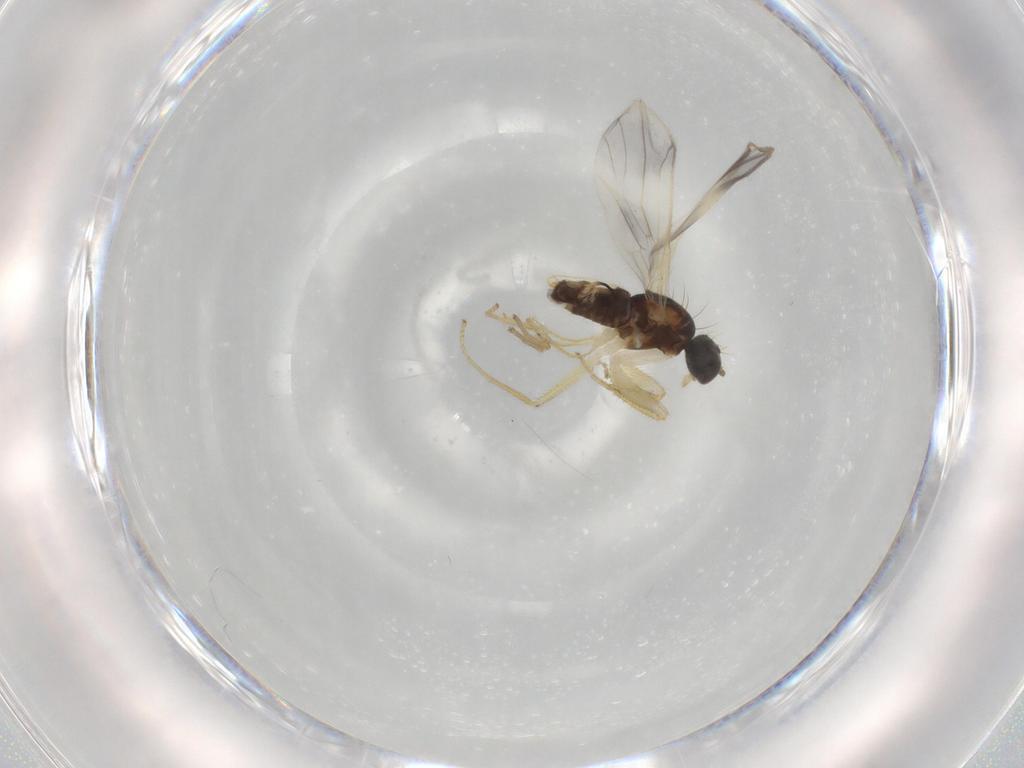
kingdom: Animalia
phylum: Arthropoda
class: Insecta
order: Diptera
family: Empididae
